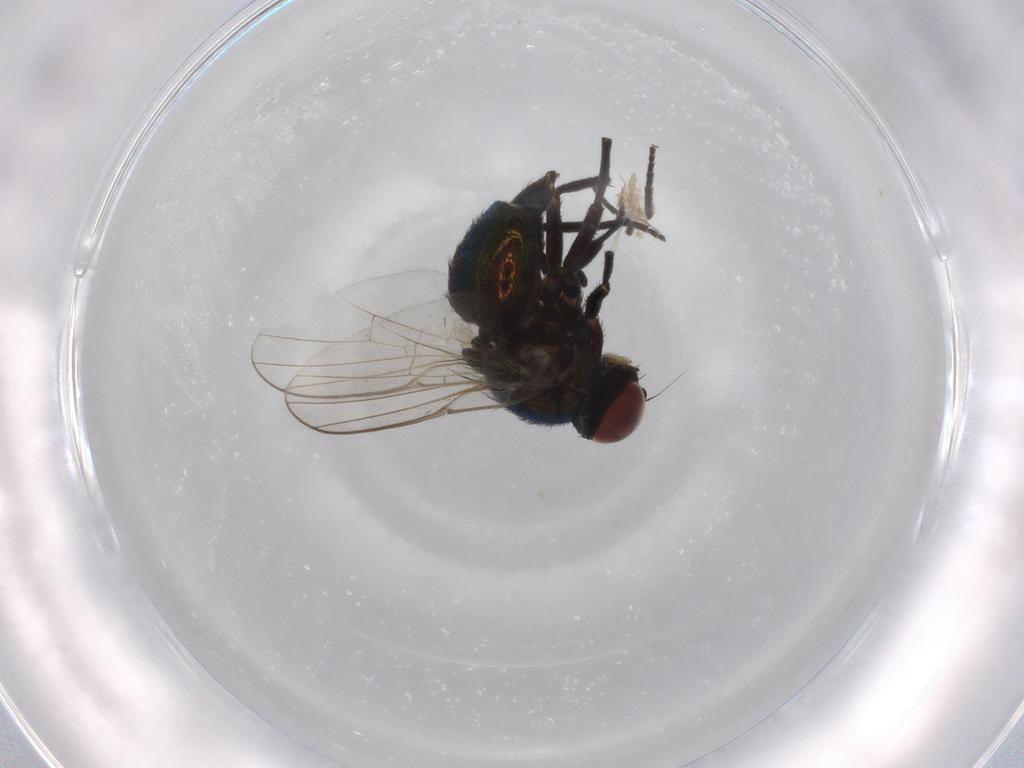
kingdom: Animalia
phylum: Arthropoda
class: Insecta
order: Diptera
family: Agromyzidae
